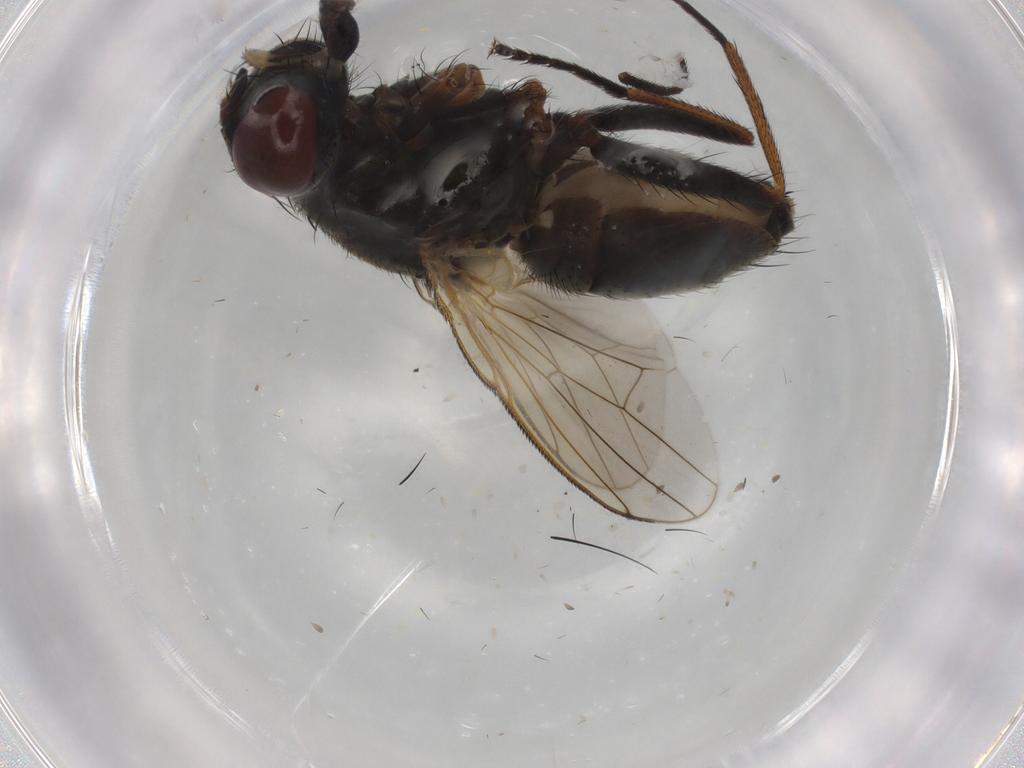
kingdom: Animalia
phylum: Arthropoda
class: Insecta
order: Diptera
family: Muscidae
